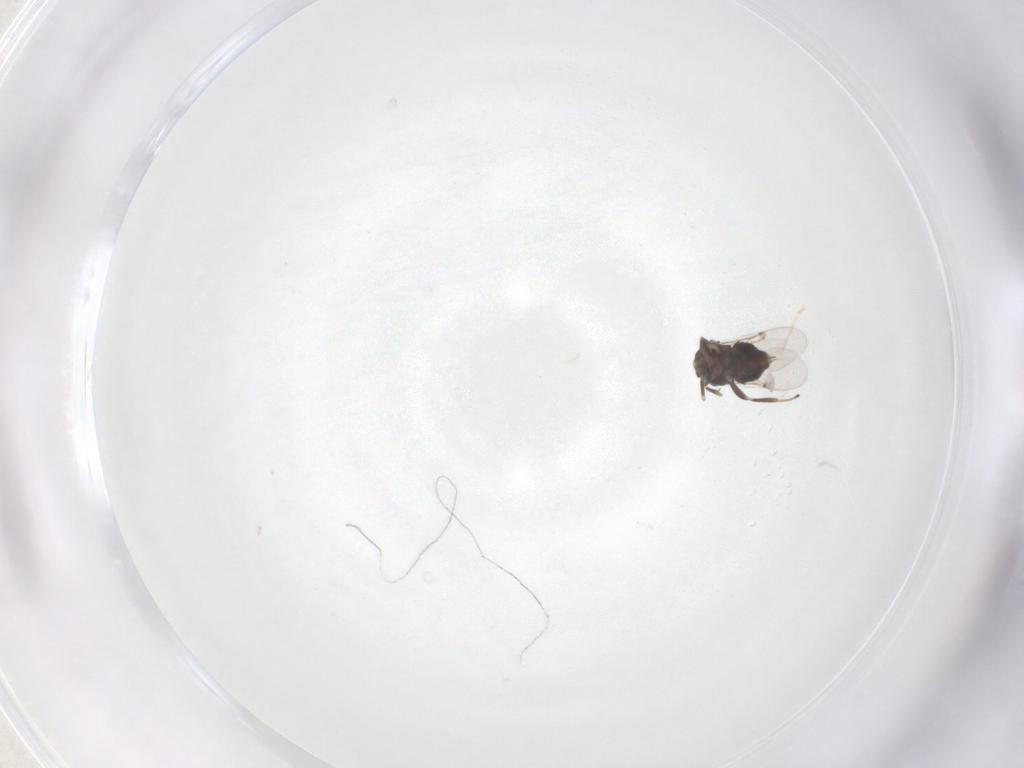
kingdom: Animalia
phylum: Arthropoda
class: Insecta
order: Hymenoptera
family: Encyrtidae
